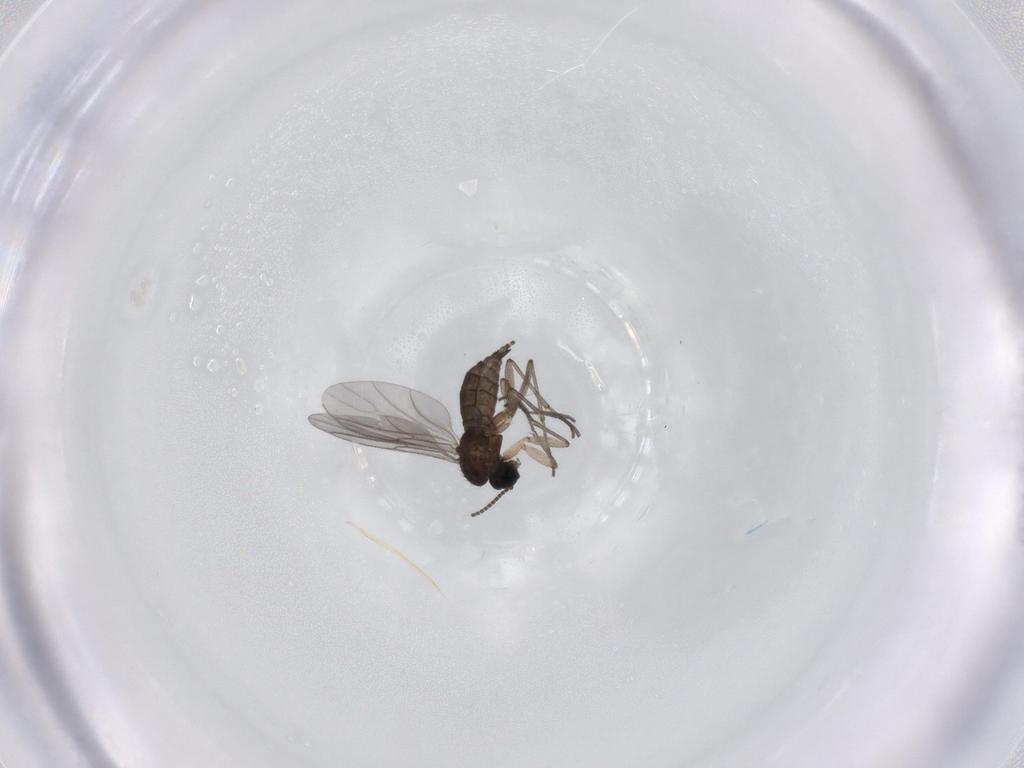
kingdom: Animalia
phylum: Arthropoda
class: Insecta
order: Diptera
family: Sciaridae
